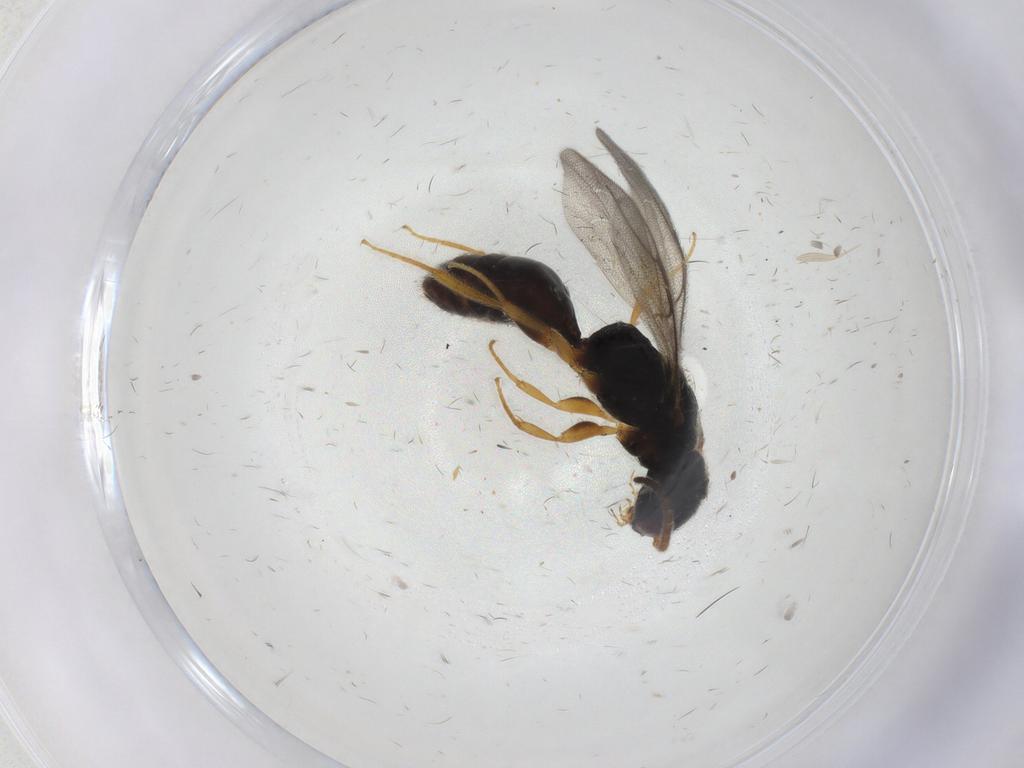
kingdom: Animalia
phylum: Arthropoda
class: Insecta
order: Hymenoptera
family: Bethylidae
